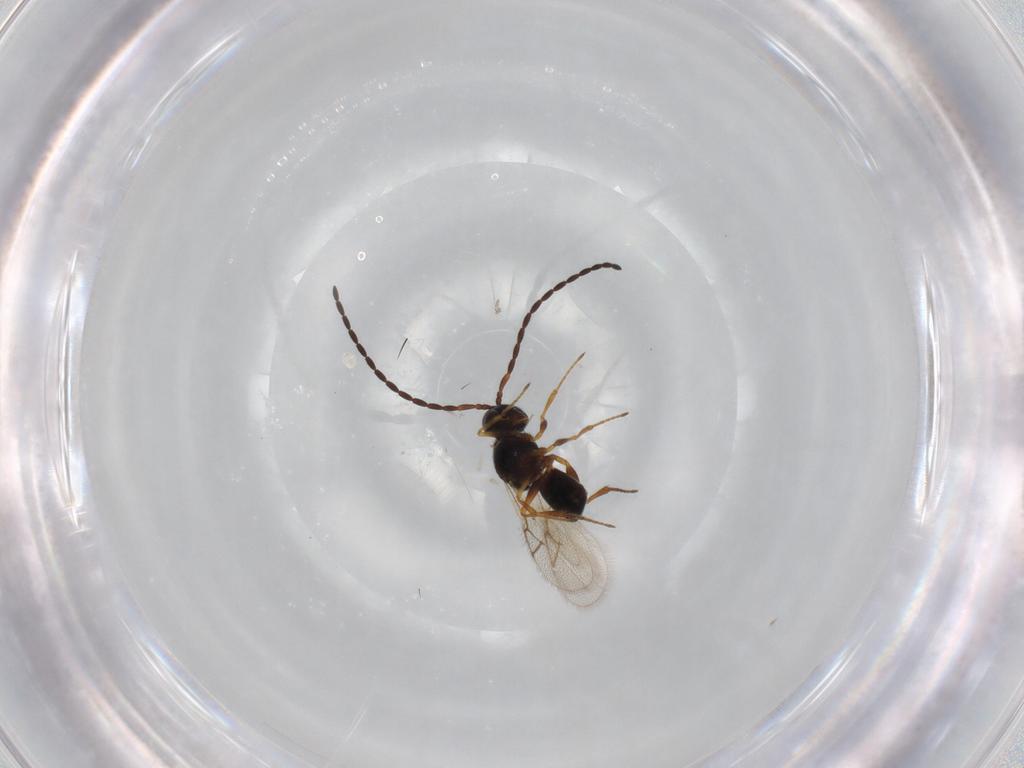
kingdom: Animalia
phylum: Arthropoda
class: Insecta
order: Hymenoptera
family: Figitidae
